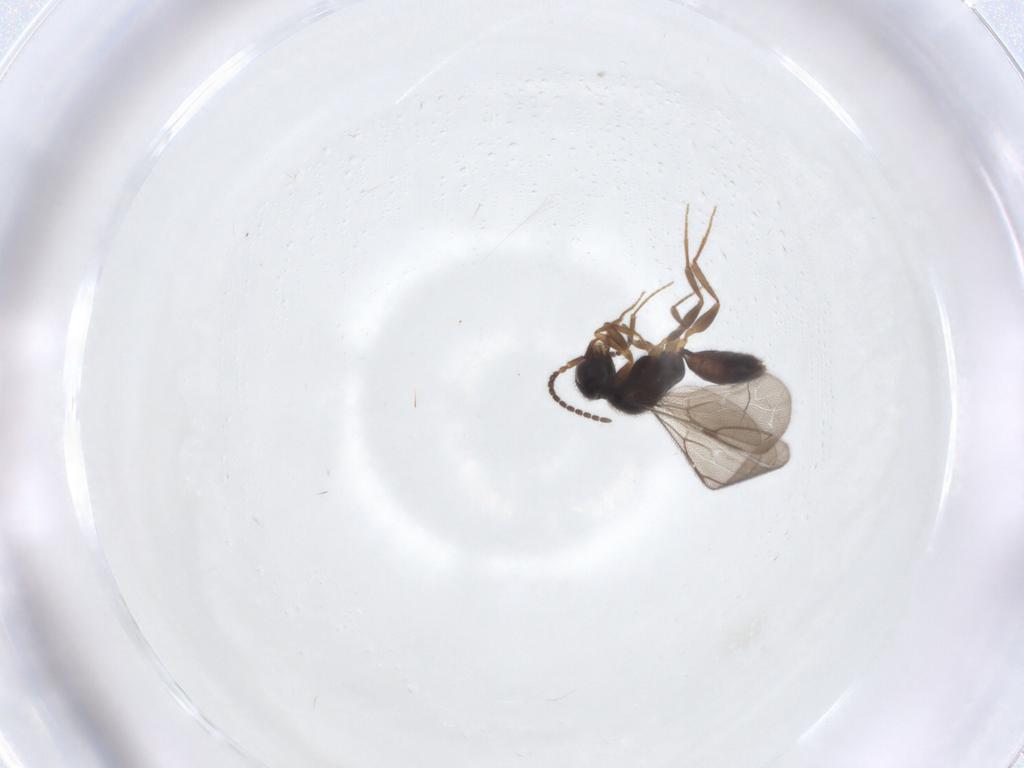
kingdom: Animalia
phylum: Arthropoda
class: Insecta
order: Hymenoptera
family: Bethylidae
